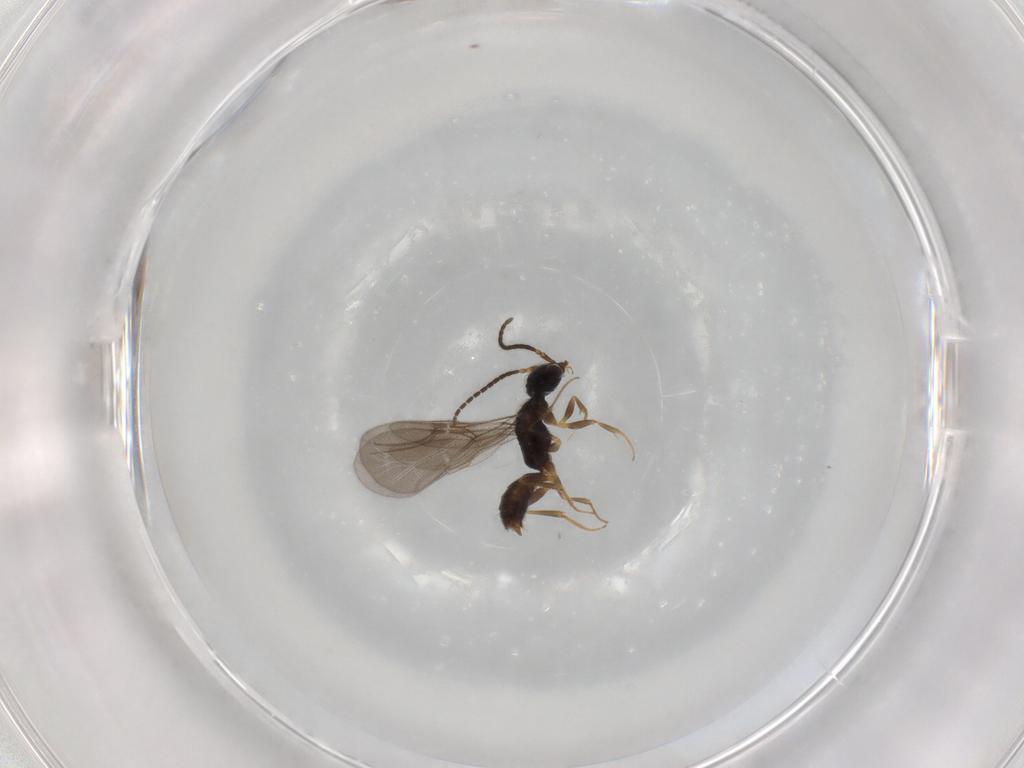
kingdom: Animalia
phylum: Arthropoda
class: Insecta
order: Hymenoptera
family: Bethylidae
